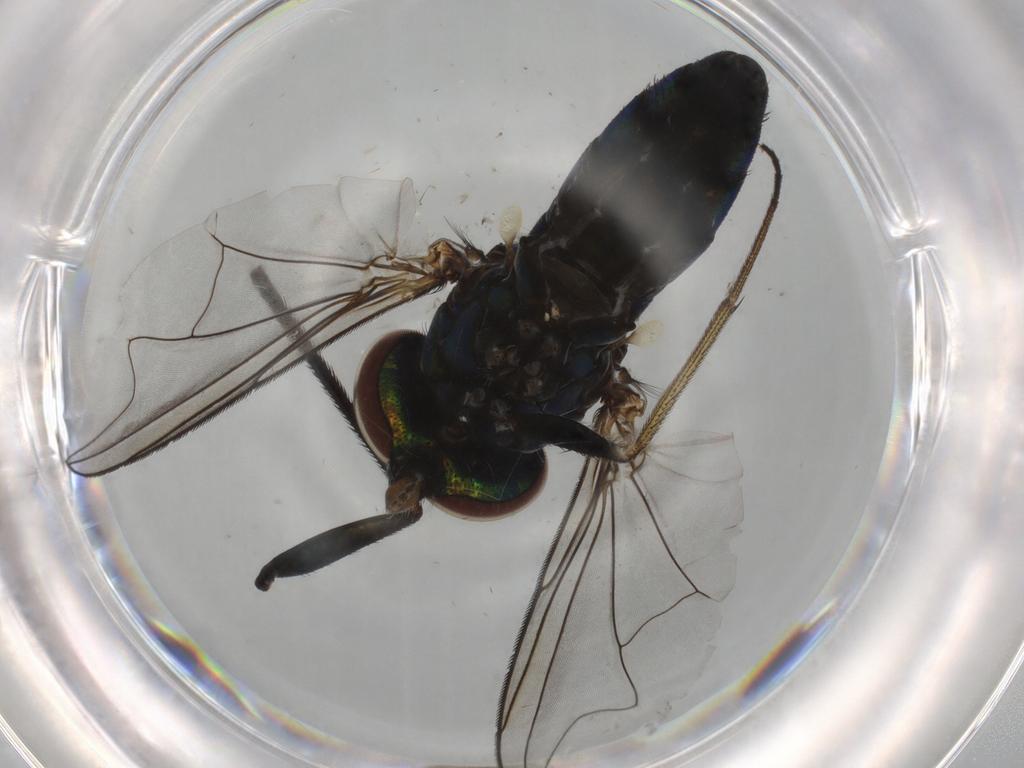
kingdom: Animalia
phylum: Arthropoda
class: Insecta
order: Diptera
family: Dolichopodidae
